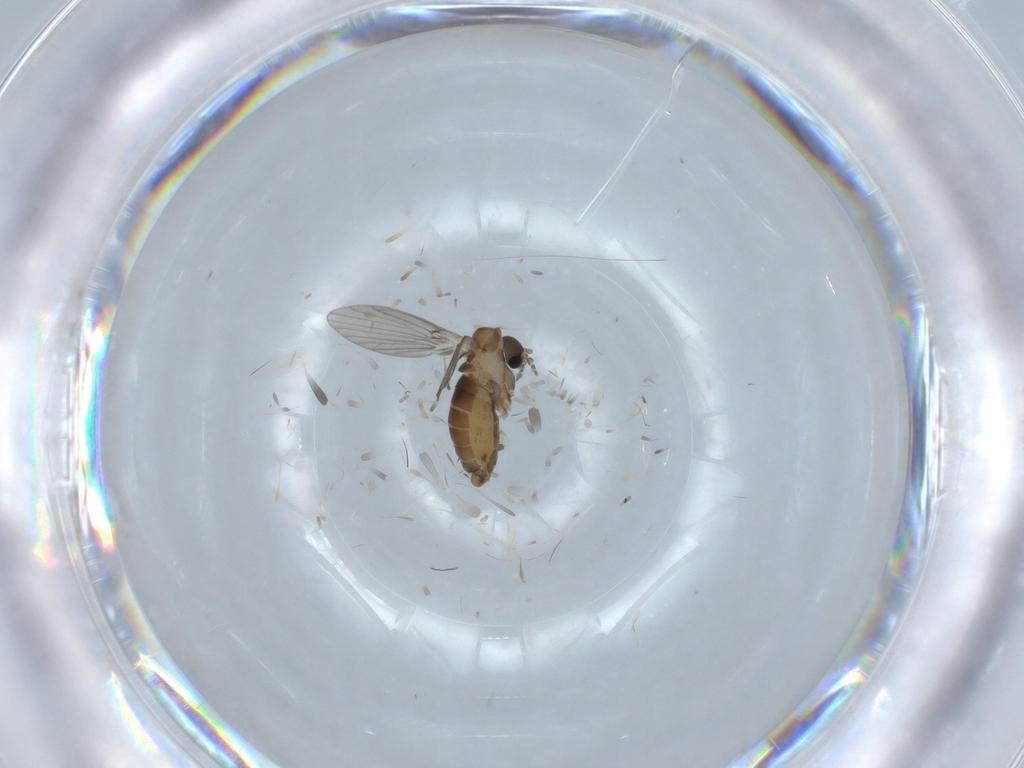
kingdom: Animalia
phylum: Arthropoda
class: Insecta
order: Diptera
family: Psychodidae
